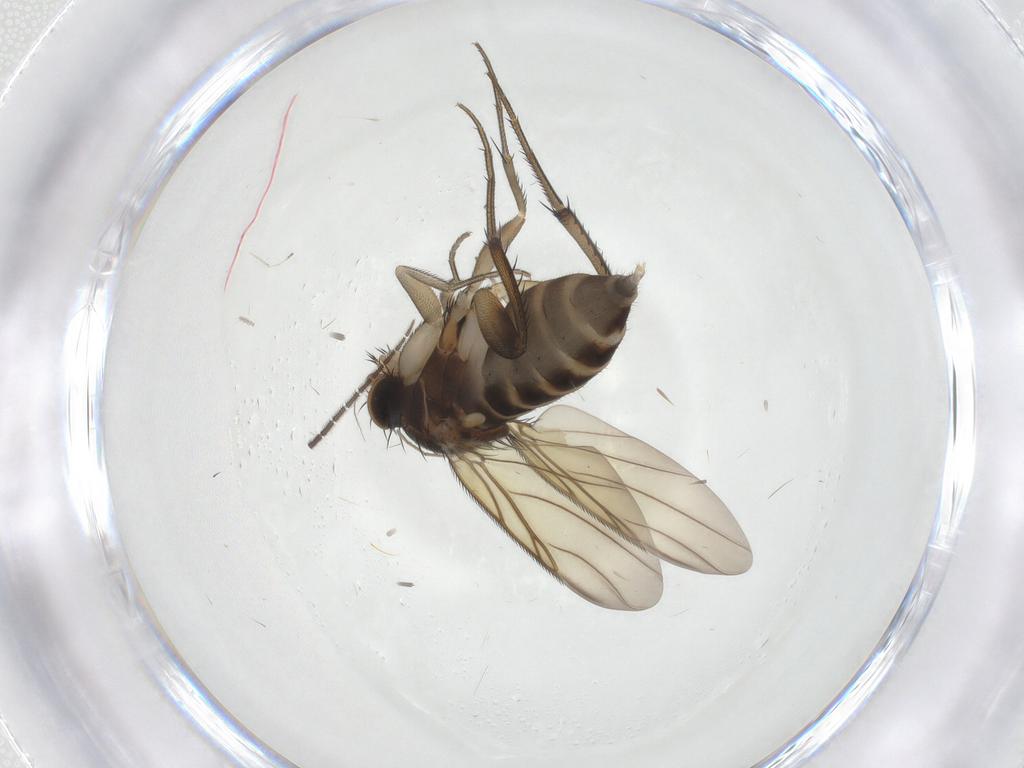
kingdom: Animalia
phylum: Arthropoda
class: Insecta
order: Diptera
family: Phoridae
